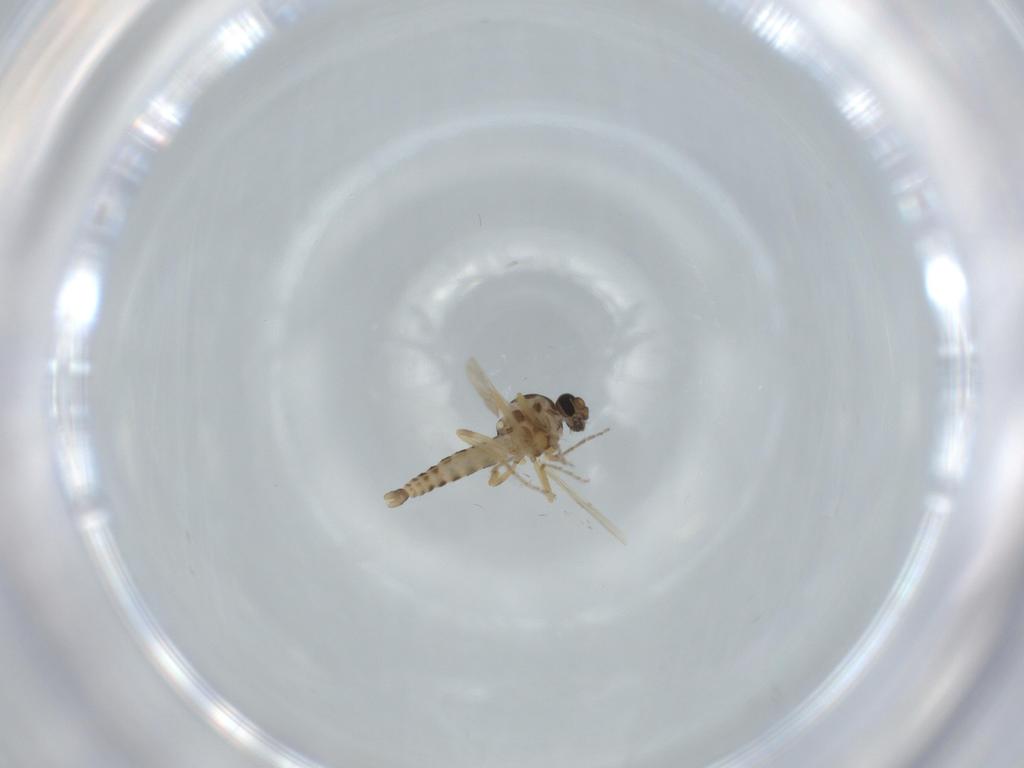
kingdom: Animalia
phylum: Arthropoda
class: Insecta
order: Diptera
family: Ceratopogonidae
